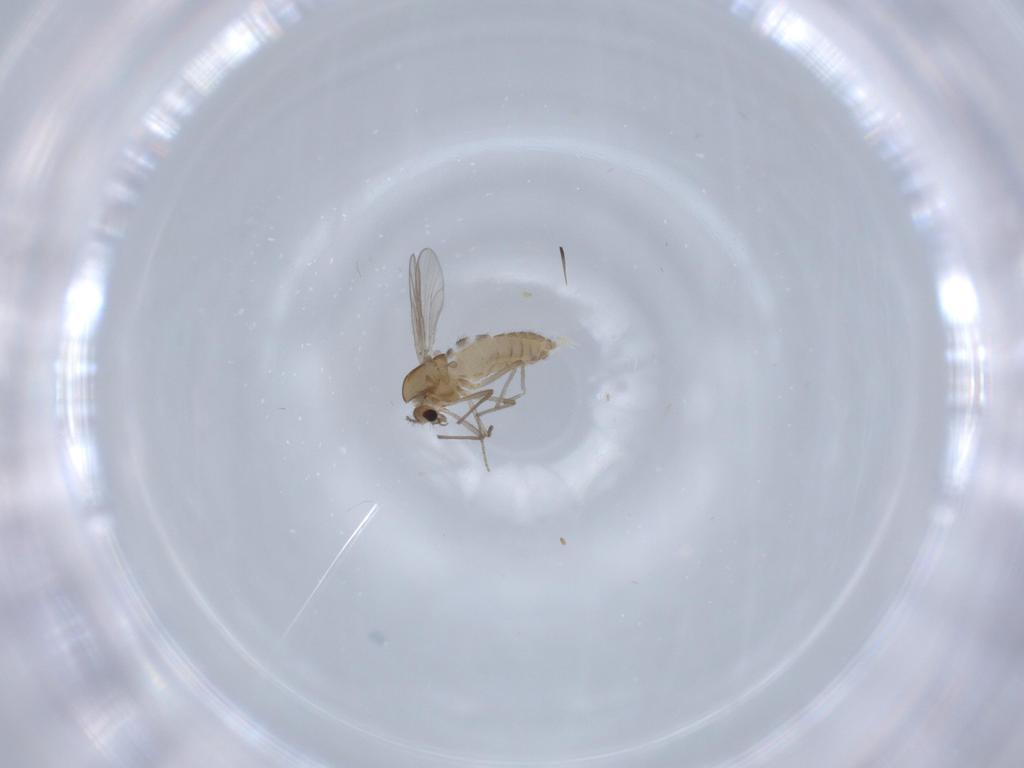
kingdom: Animalia
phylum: Arthropoda
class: Insecta
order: Diptera
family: Chironomidae
